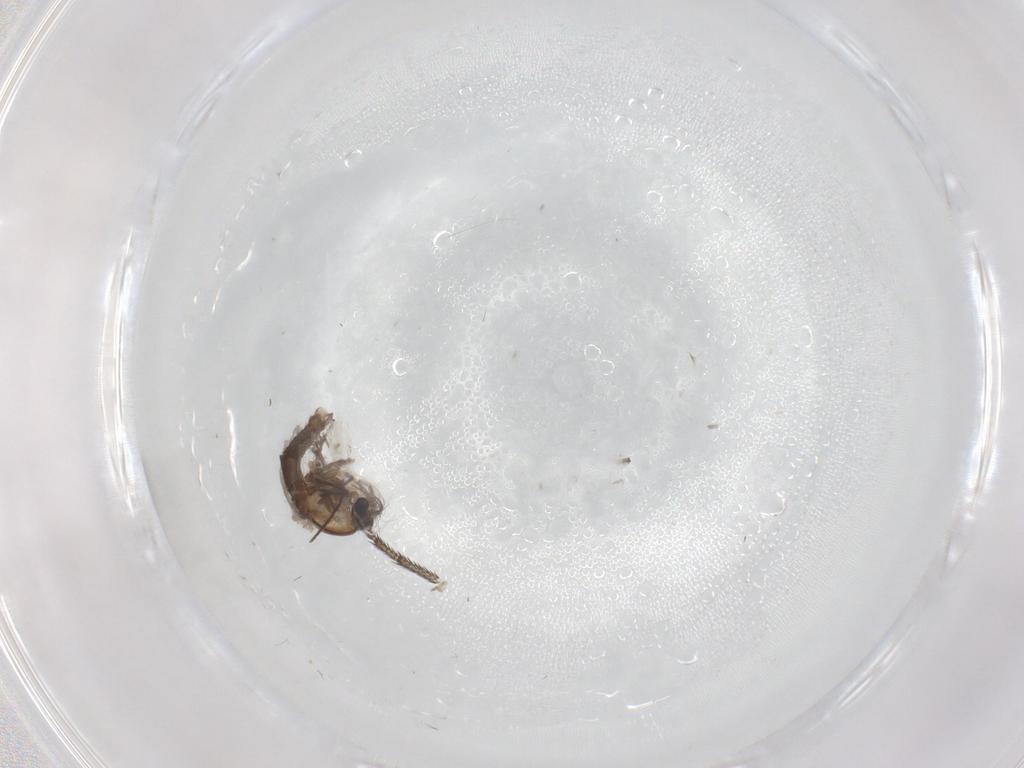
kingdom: Animalia
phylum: Arthropoda
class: Insecta
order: Diptera
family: Chironomidae
